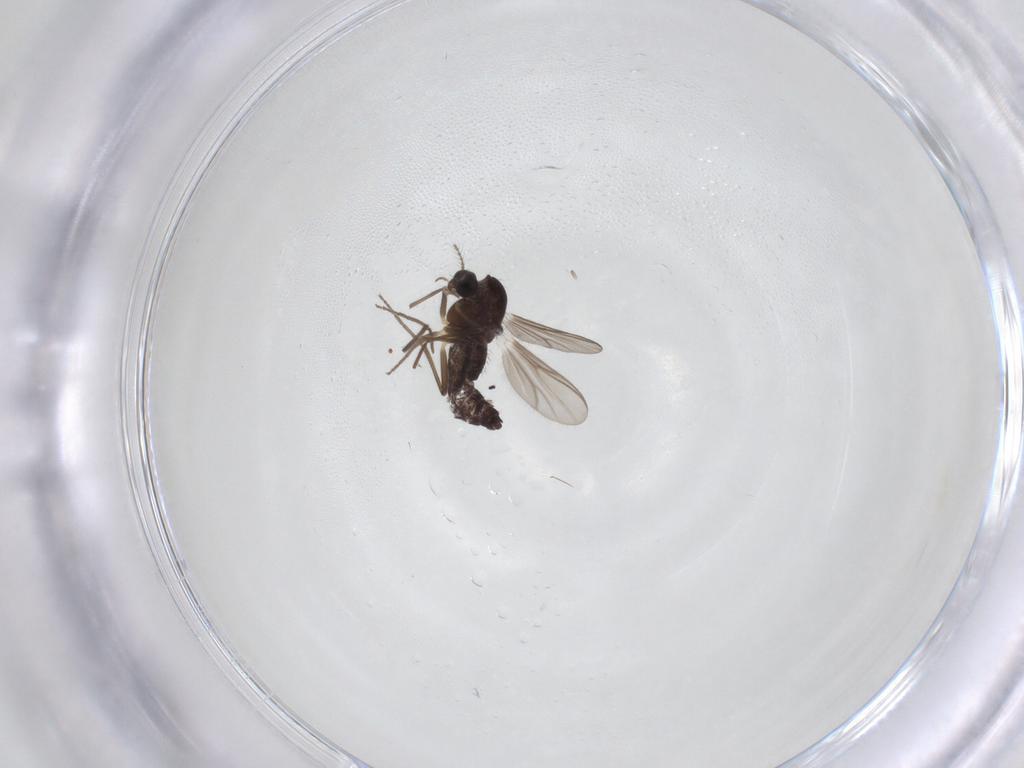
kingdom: Animalia
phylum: Arthropoda
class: Insecta
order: Diptera
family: Chironomidae
